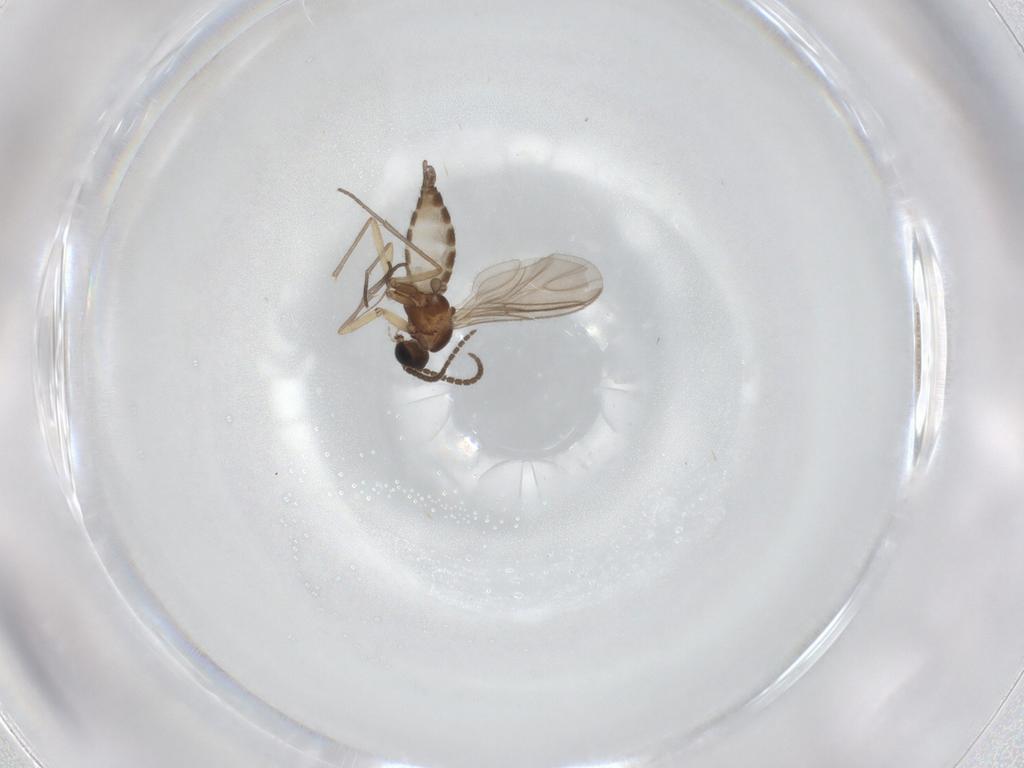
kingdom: Animalia
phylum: Arthropoda
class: Insecta
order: Diptera
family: Sciaridae
